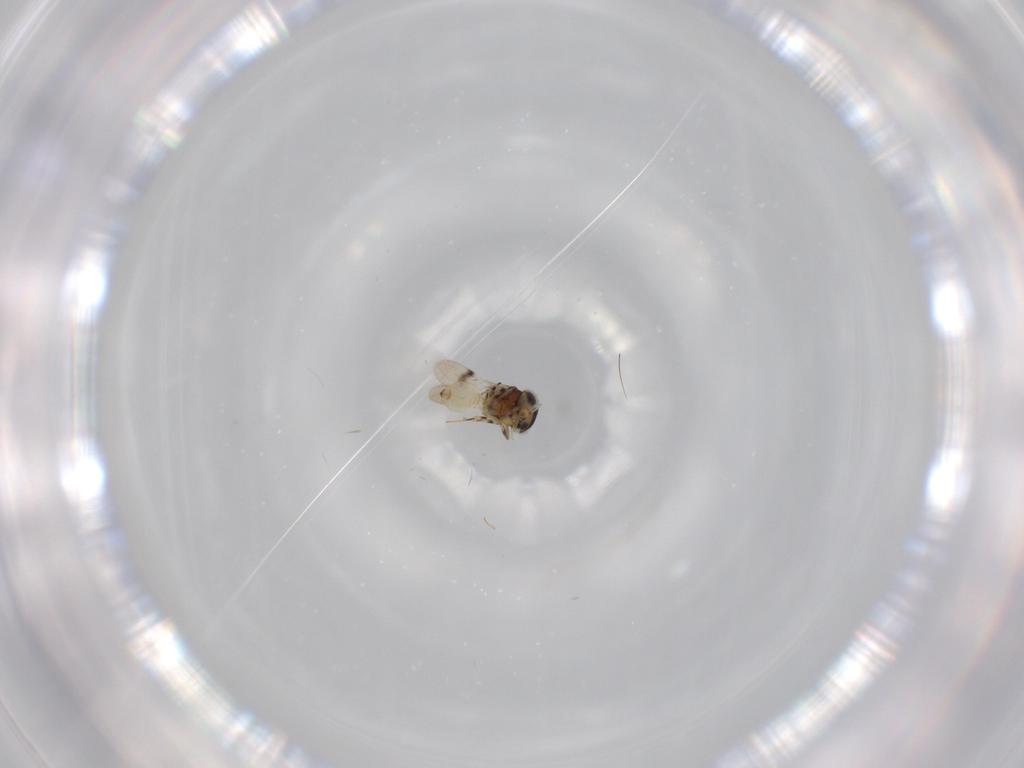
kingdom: Animalia
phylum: Arthropoda
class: Insecta
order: Hymenoptera
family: Scelionidae
